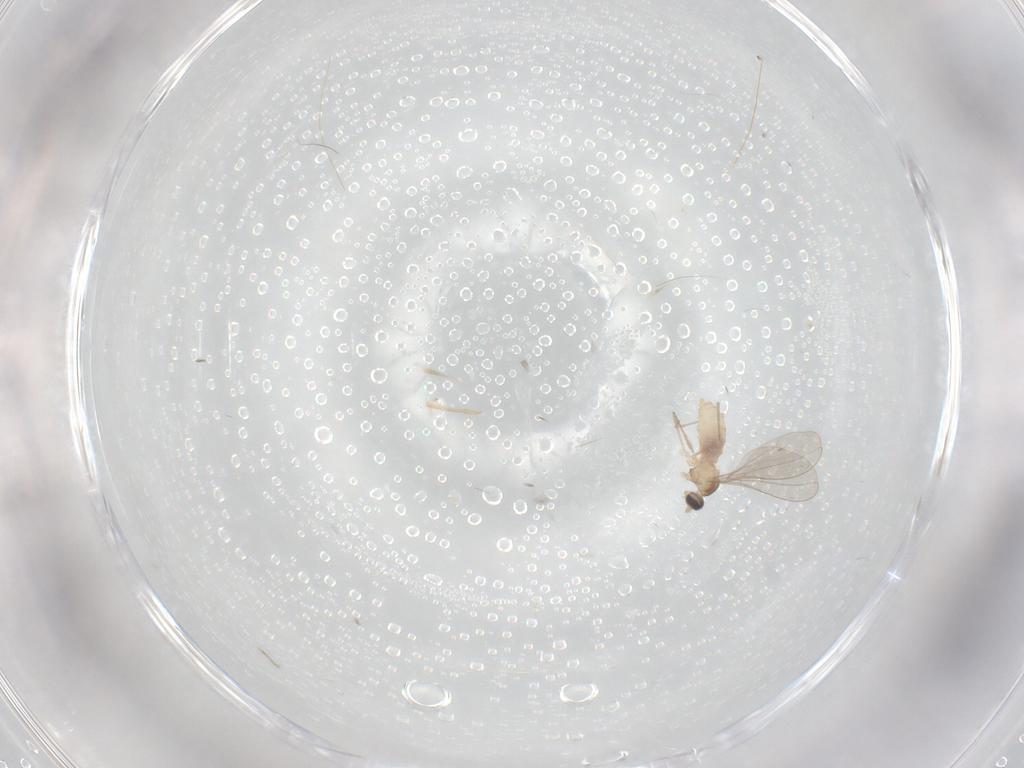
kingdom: Animalia
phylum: Arthropoda
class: Insecta
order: Diptera
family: Cecidomyiidae
